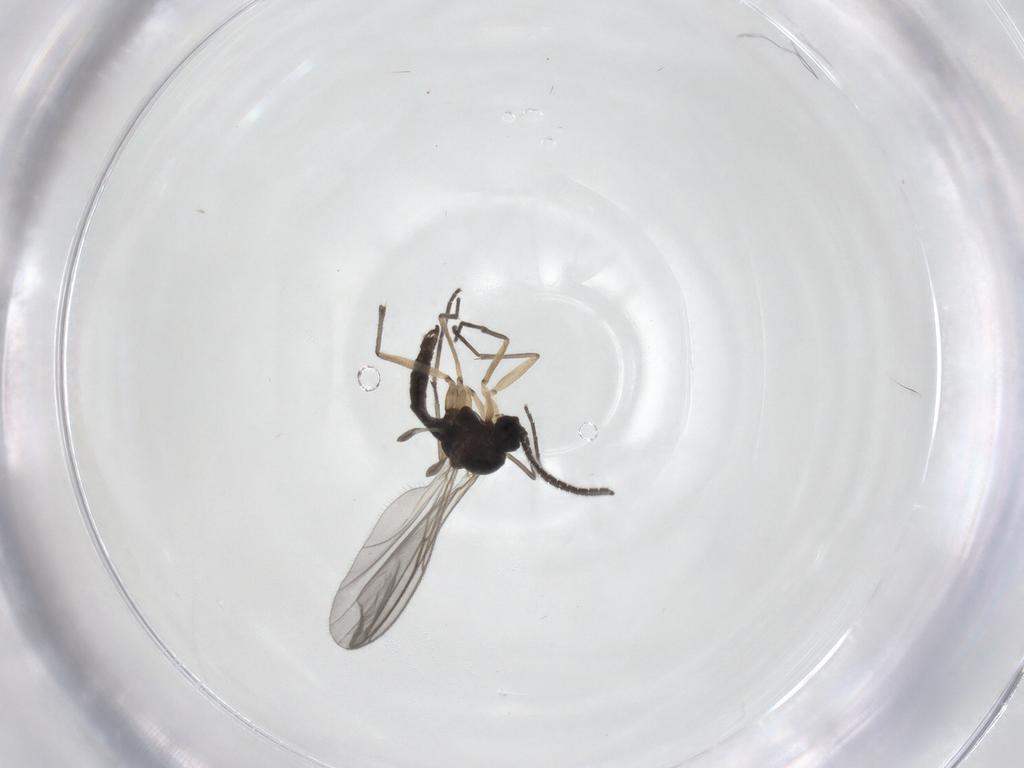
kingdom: Animalia
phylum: Arthropoda
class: Insecta
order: Diptera
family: Sciaridae
